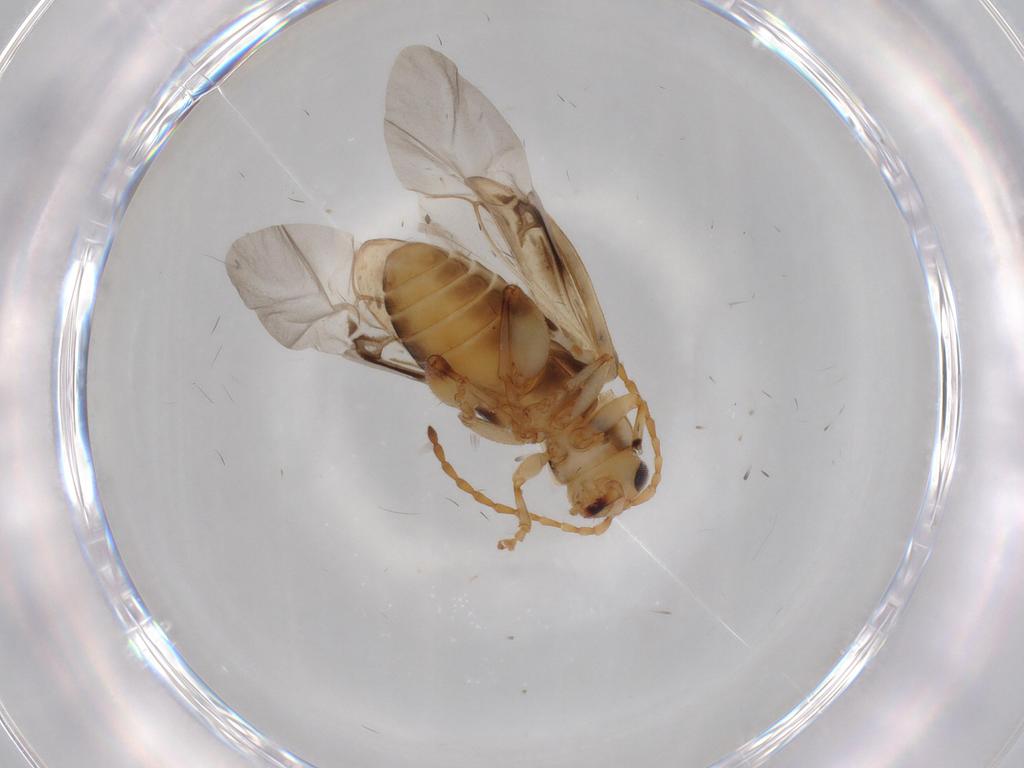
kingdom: Animalia
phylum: Arthropoda
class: Insecta
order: Coleoptera
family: Chrysomelidae
